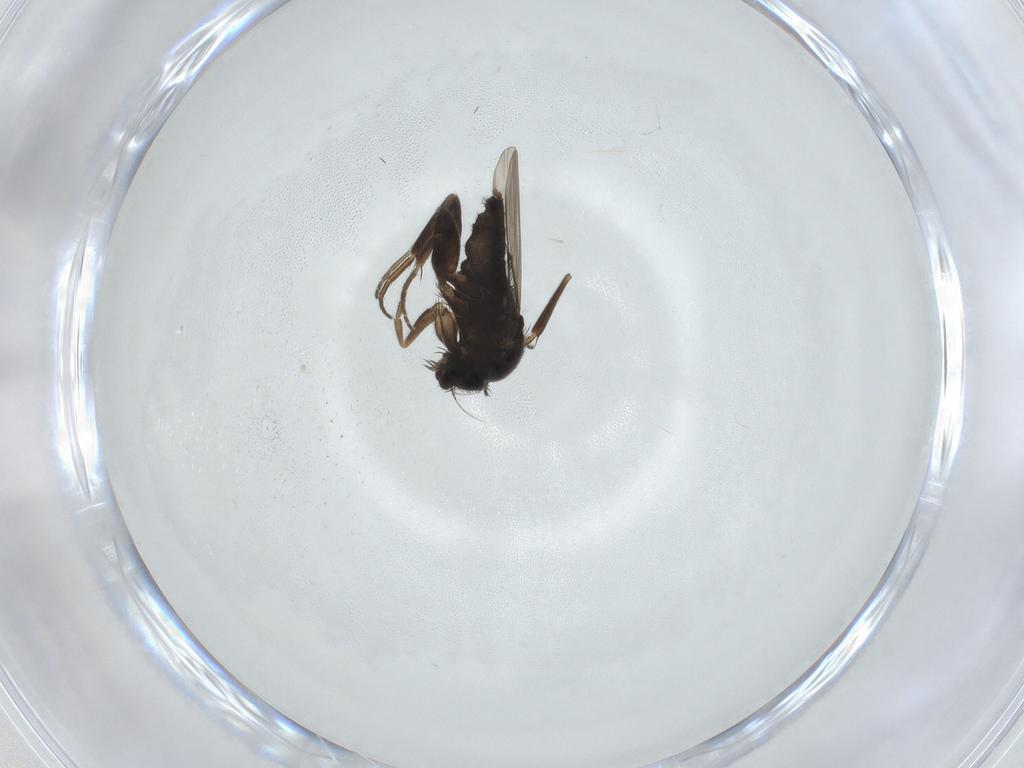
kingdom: Animalia
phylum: Arthropoda
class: Insecta
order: Diptera
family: Phoridae
